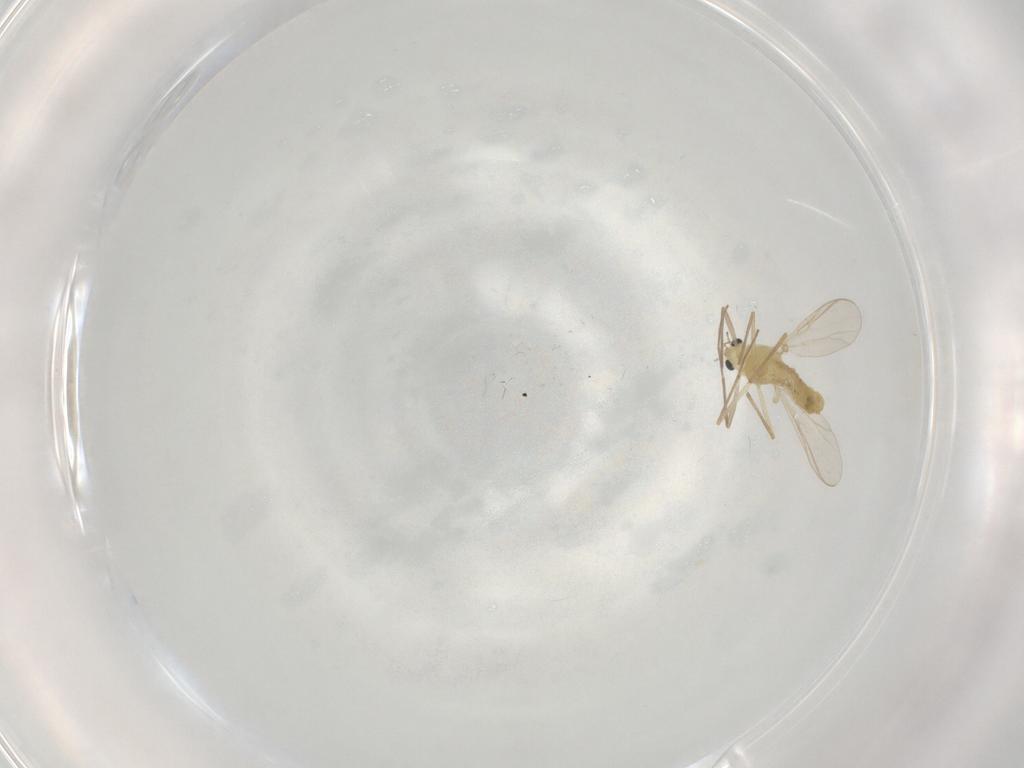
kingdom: Animalia
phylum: Arthropoda
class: Insecta
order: Diptera
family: Chironomidae
